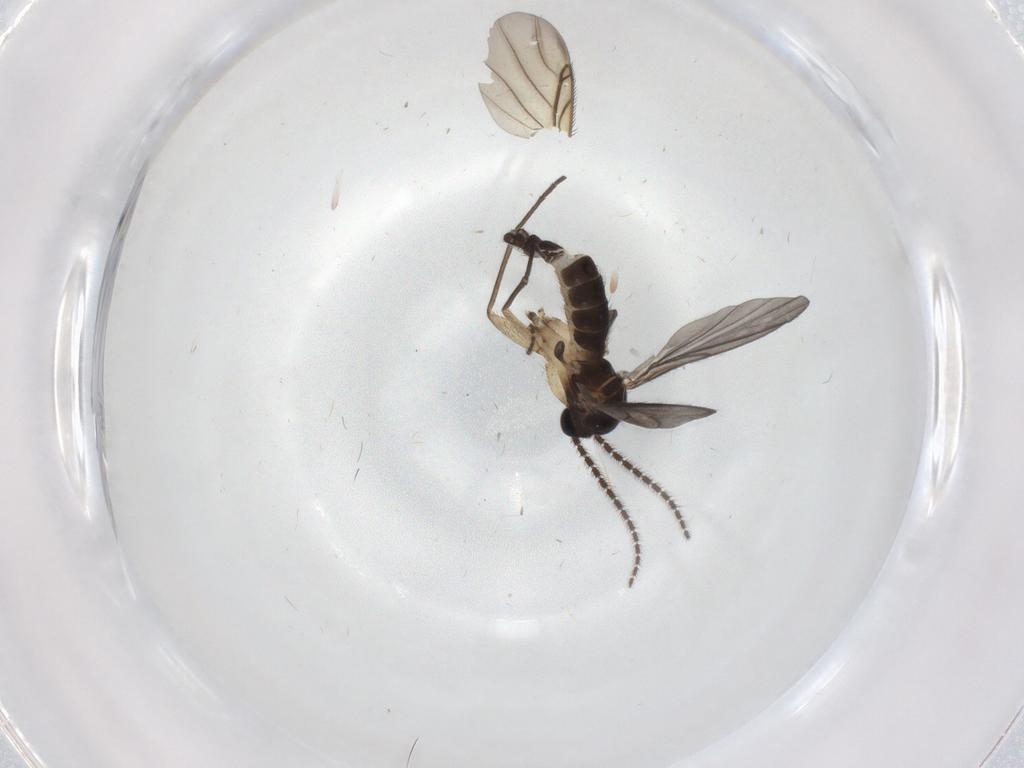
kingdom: Animalia
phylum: Arthropoda
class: Insecta
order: Diptera
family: Sciaridae
